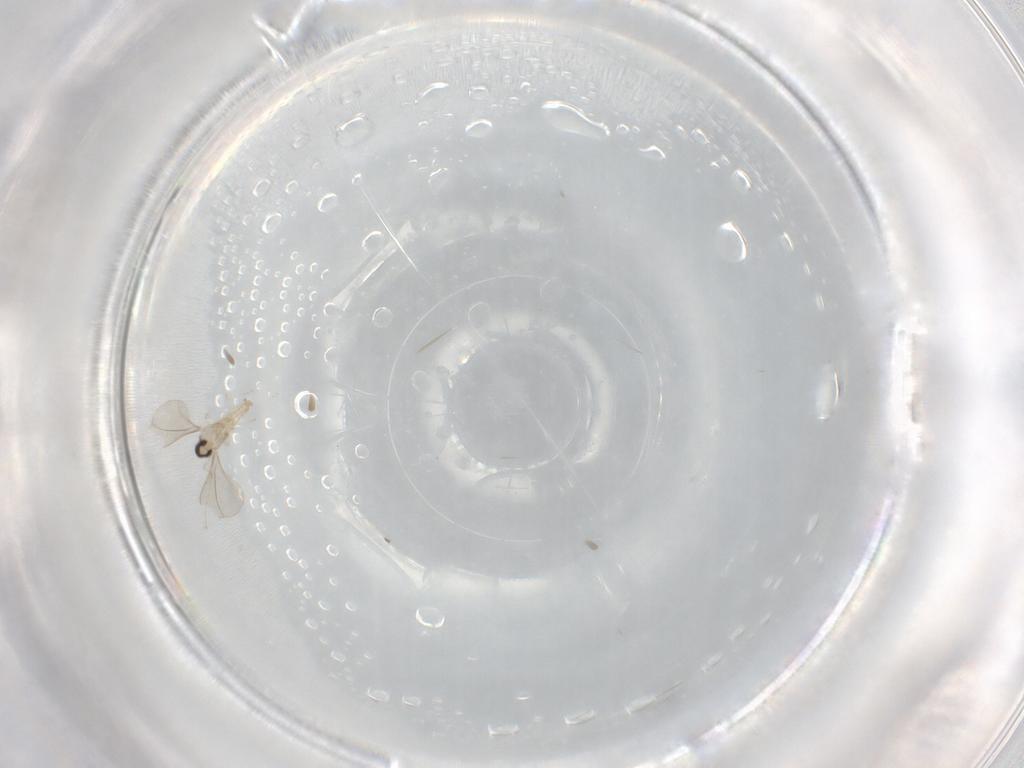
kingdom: Animalia
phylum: Arthropoda
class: Insecta
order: Diptera
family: Cecidomyiidae
